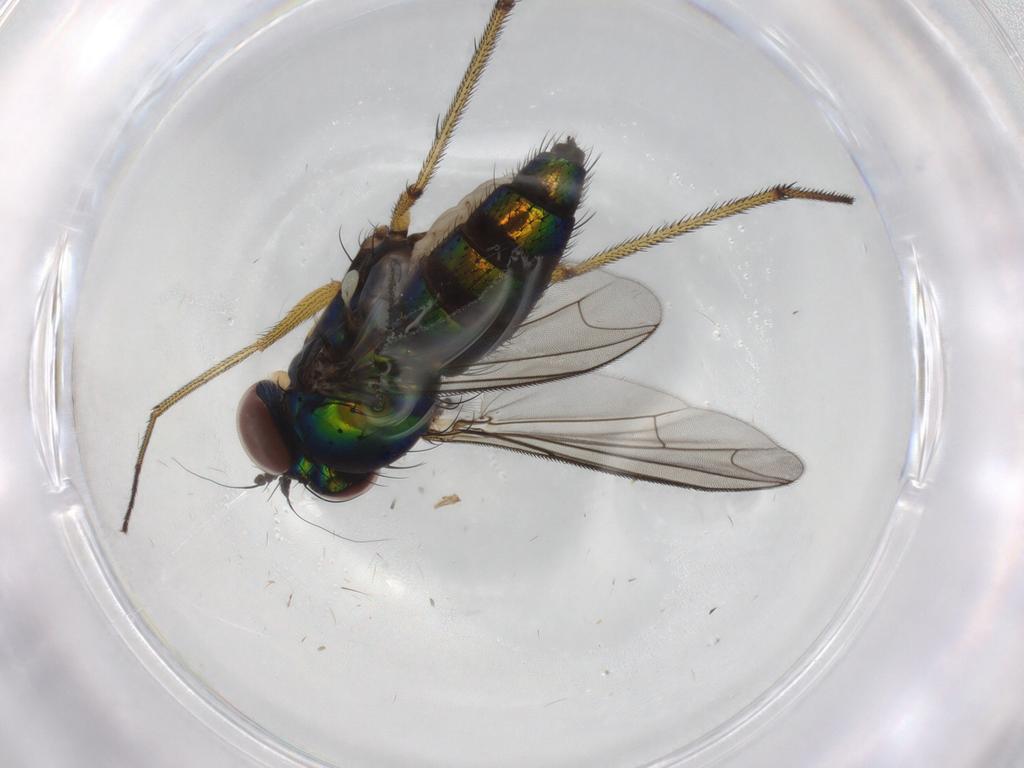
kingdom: Animalia
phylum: Arthropoda
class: Insecta
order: Diptera
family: Dolichopodidae
